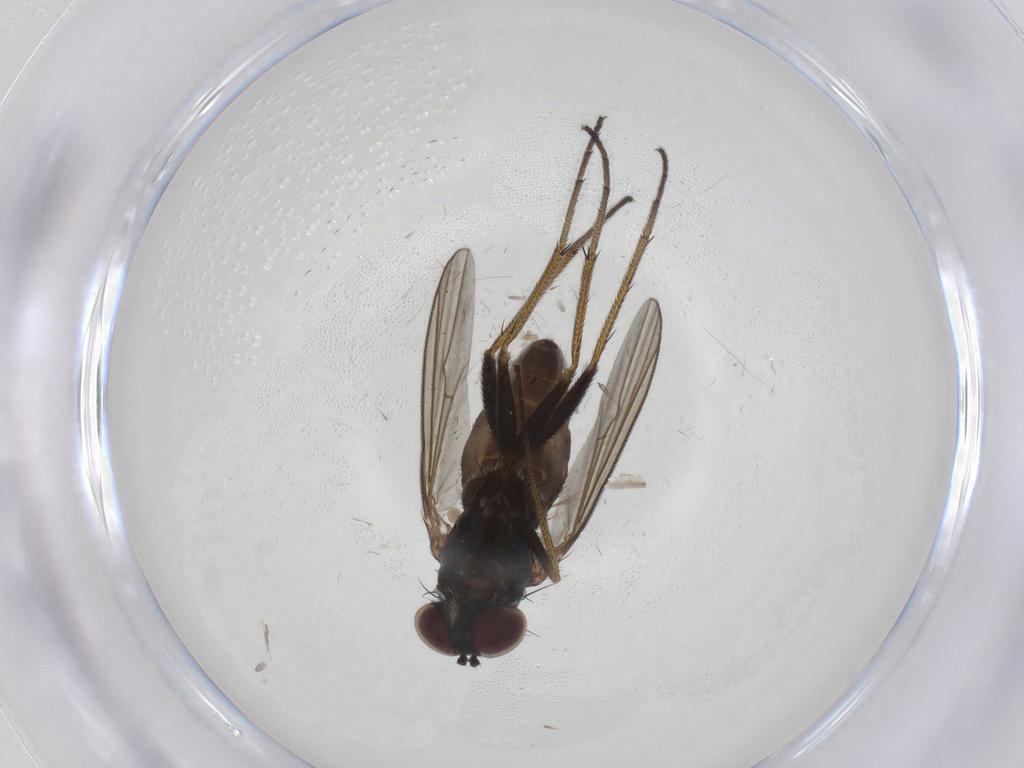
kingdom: Animalia
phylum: Arthropoda
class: Insecta
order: Diptera
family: Dolichopodidae
